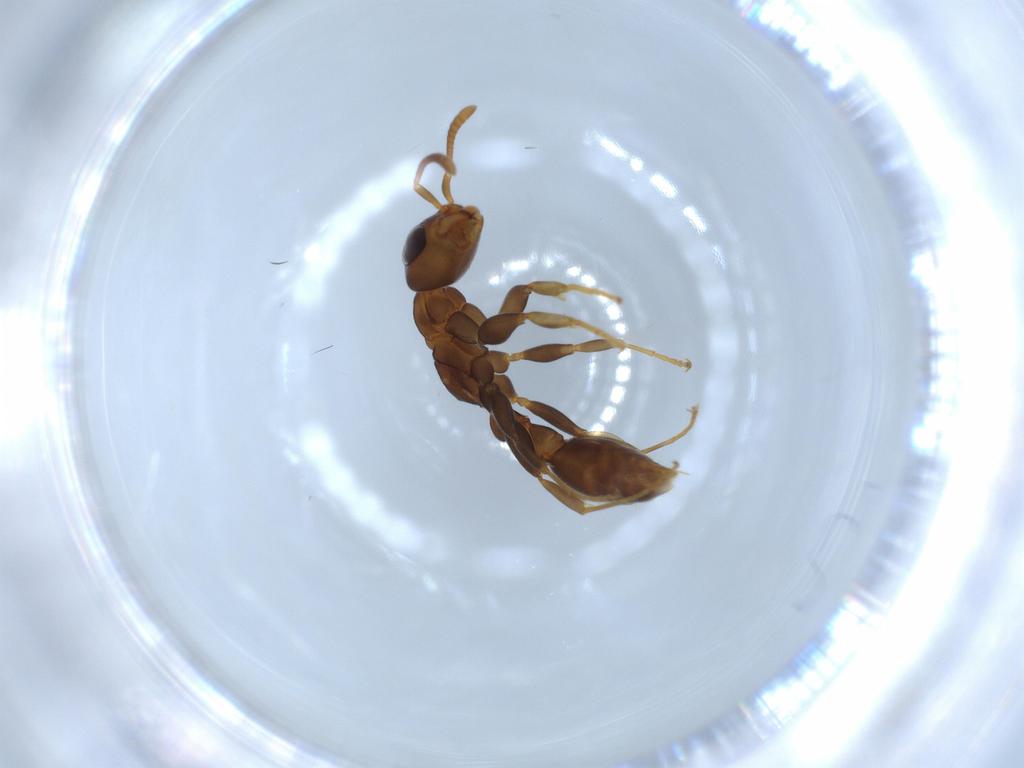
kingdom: Animalia
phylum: Arthropoda
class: Insecta
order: Hymenoptera
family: Formicidae
